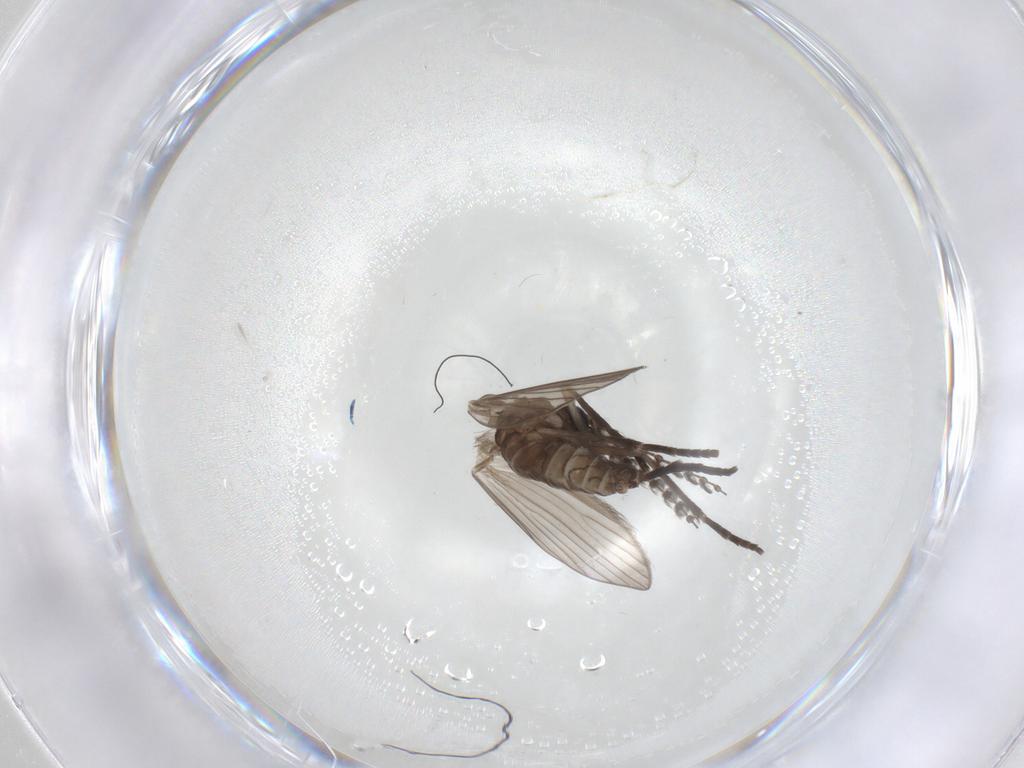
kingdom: Animalia
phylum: Arthropoda
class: Insecta
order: Diptera
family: Psychodidae
